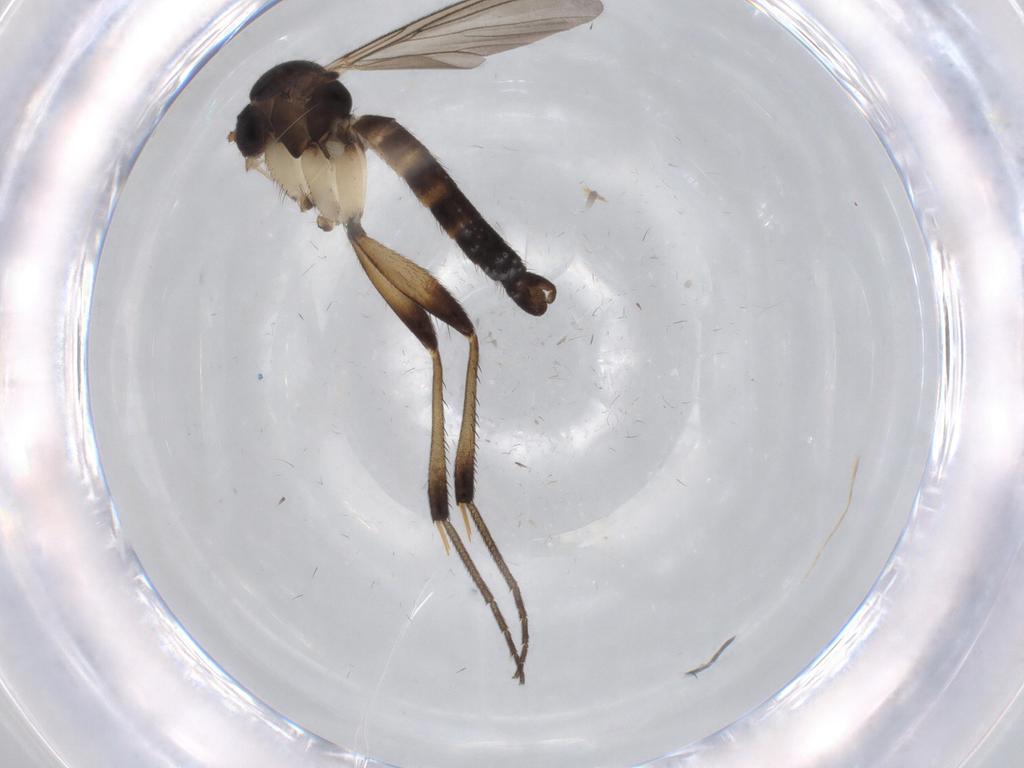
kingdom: Animalia
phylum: Arthropoda
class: Insecta
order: Diptera
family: Mycetophilidae
